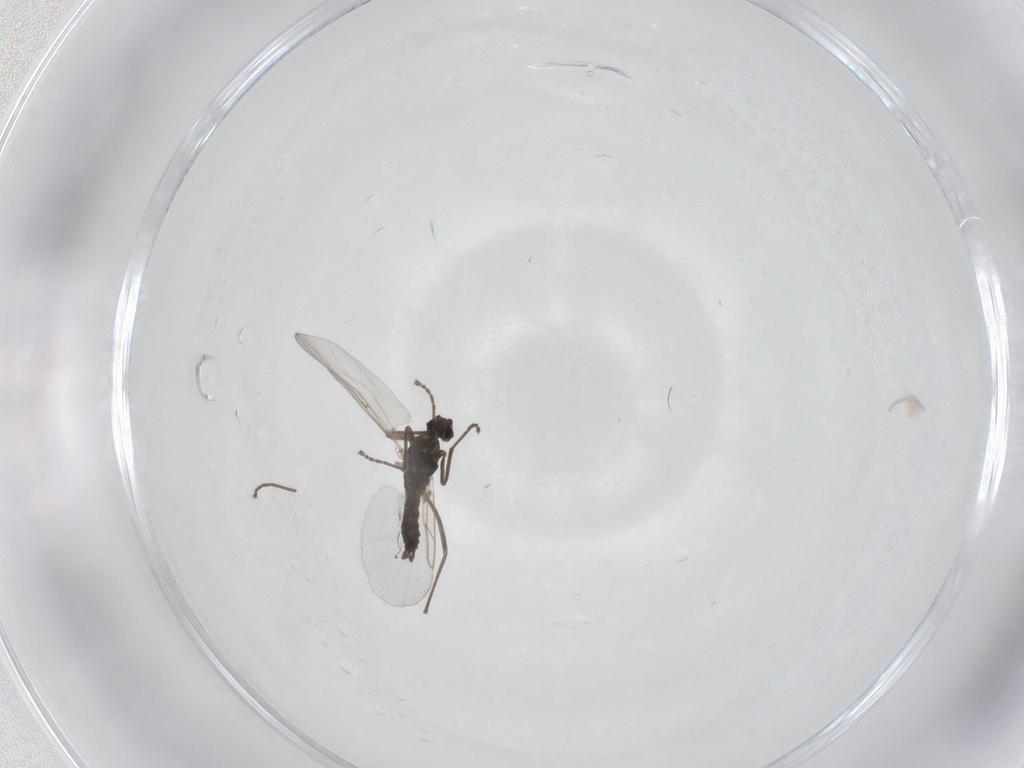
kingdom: Animalia
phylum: Arthropoda
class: Insecta
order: Diptera
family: Cecidomyiidae
